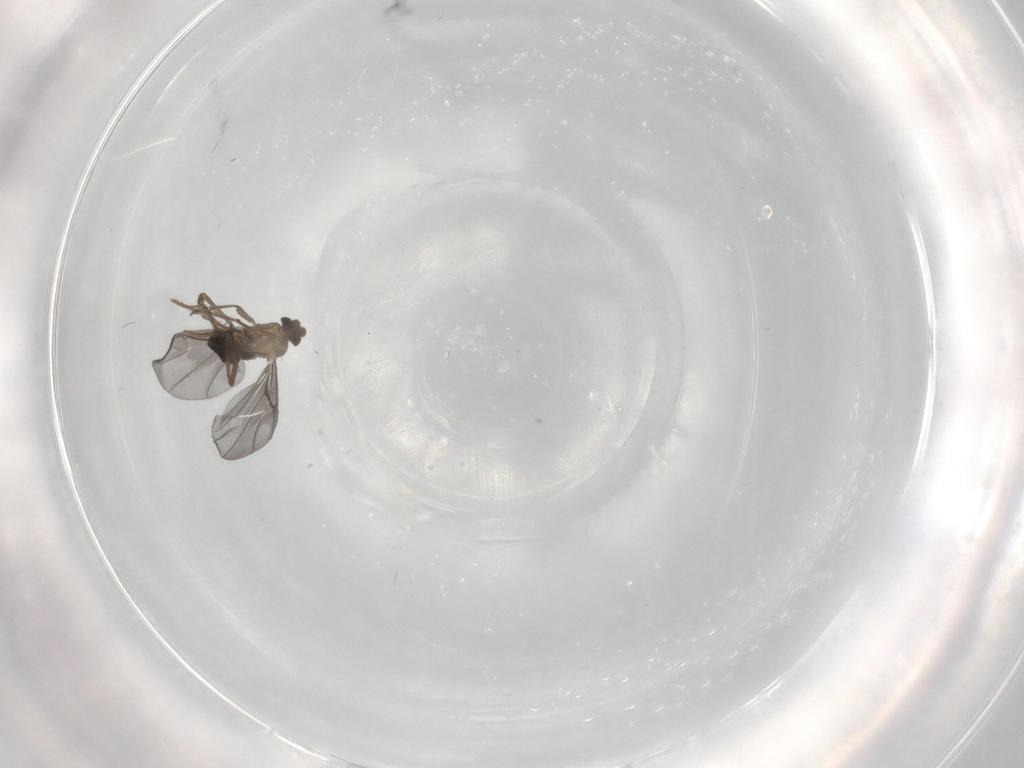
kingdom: Animalia
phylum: Arthropoda
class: Insecta
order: Diptera
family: Phoridae
